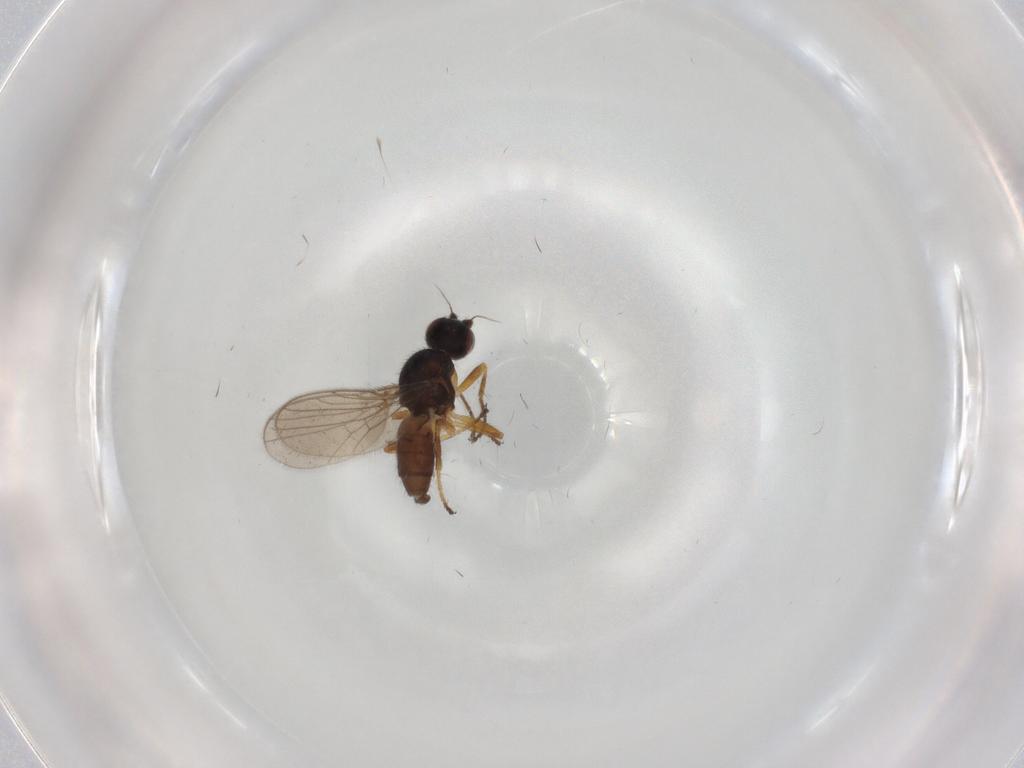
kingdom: Animalia
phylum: Arthropoda
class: Insecta
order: Diptera
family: Chloropidae
